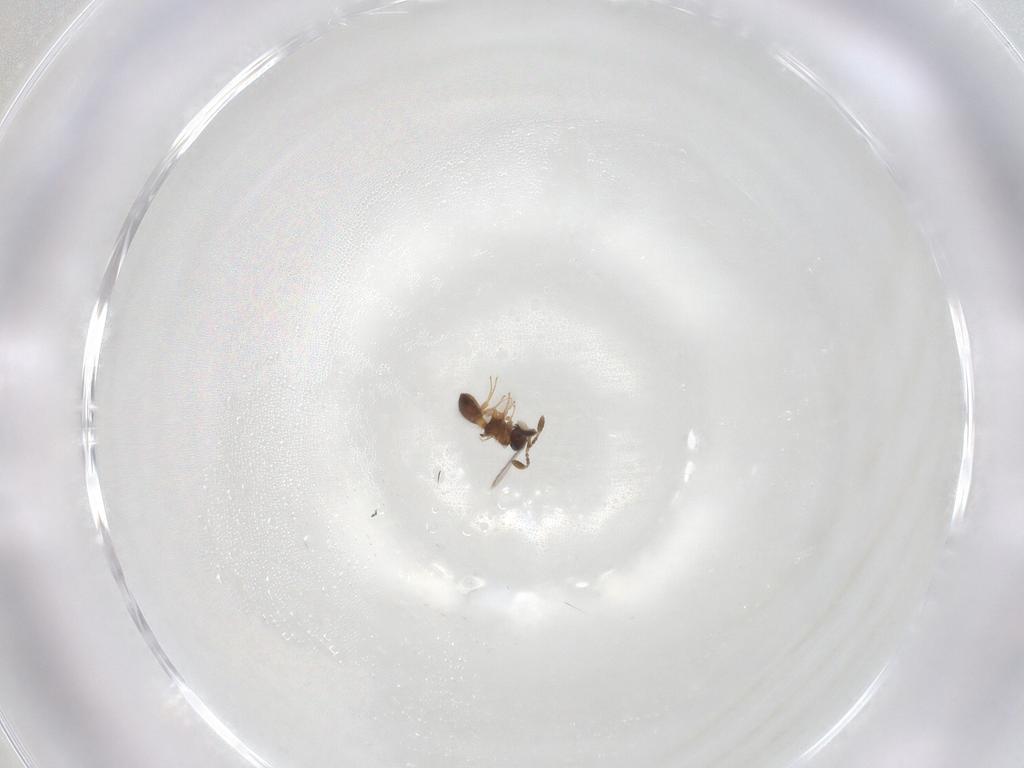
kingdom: Animalia
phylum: Arthropoda
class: Insecta
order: Hymenoptera
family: Scelionidae
